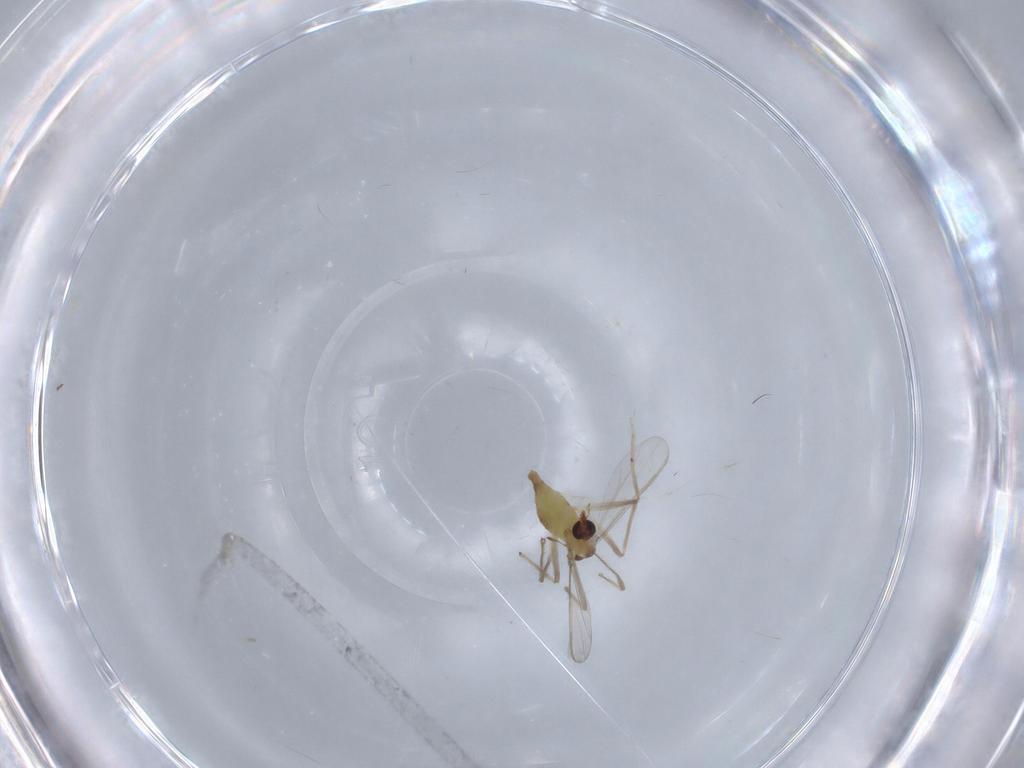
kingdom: Animalia
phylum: Arthropoda
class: Insecta
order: Diptera
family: Chironomidae
